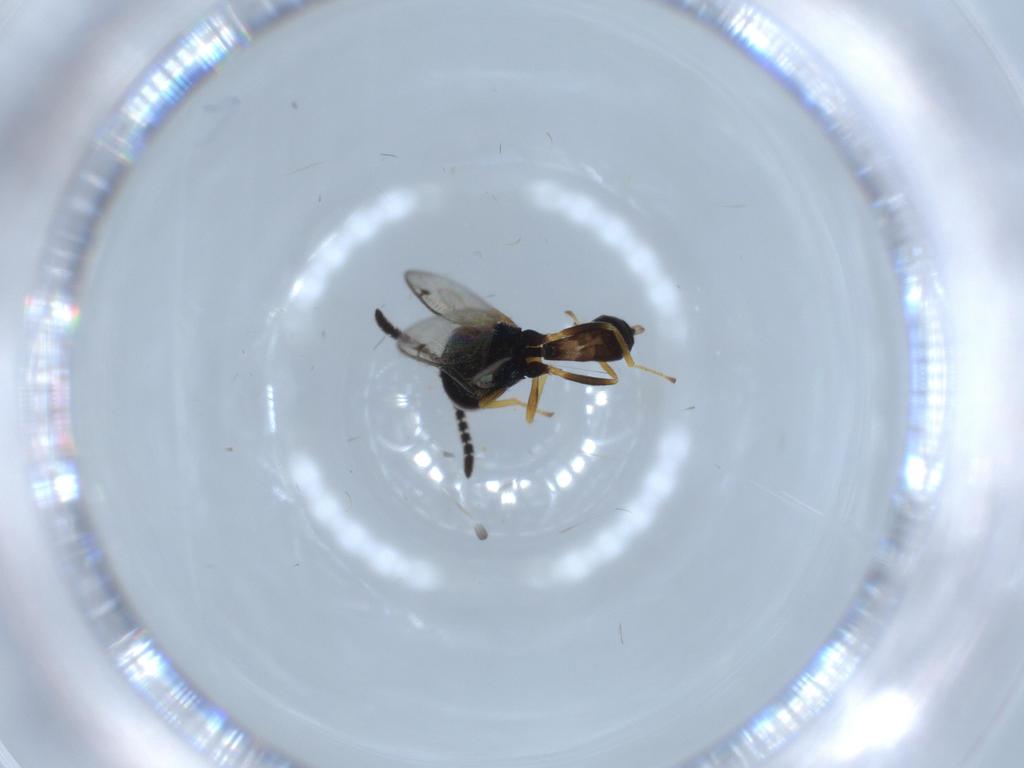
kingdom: Animalia
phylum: Arthropoda
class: Insecta
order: Hymenoptera
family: Agaonidae
